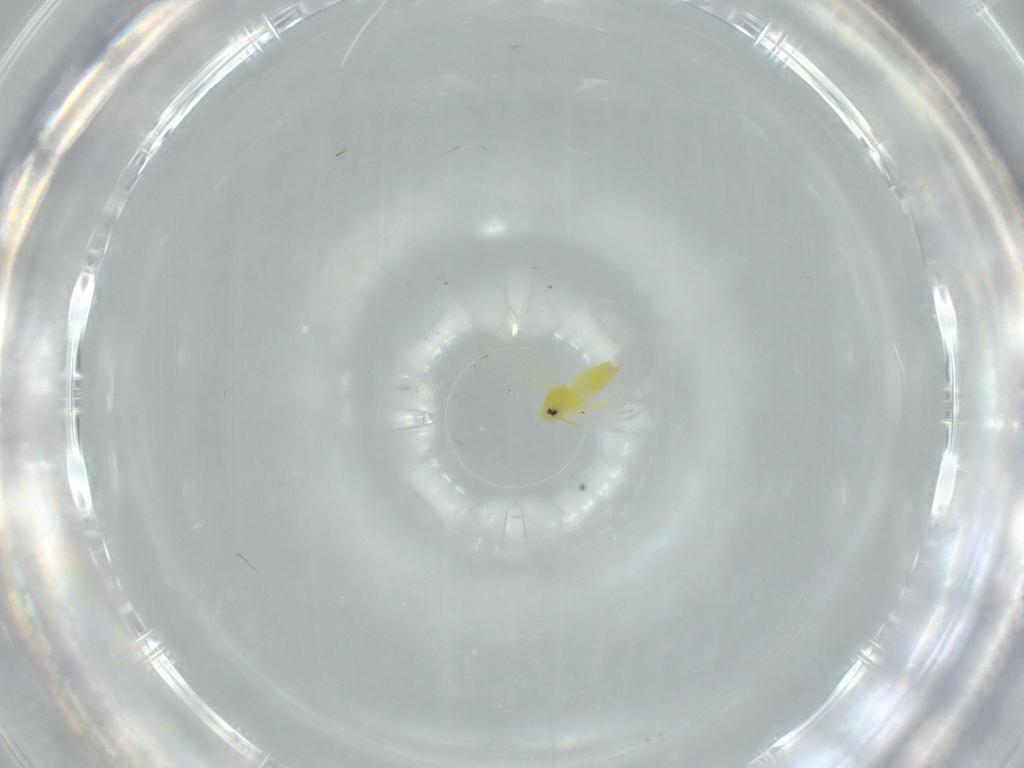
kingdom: Animalia
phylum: Arthropoda
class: Insecta
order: Hemiptera
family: Aleyrodidae
